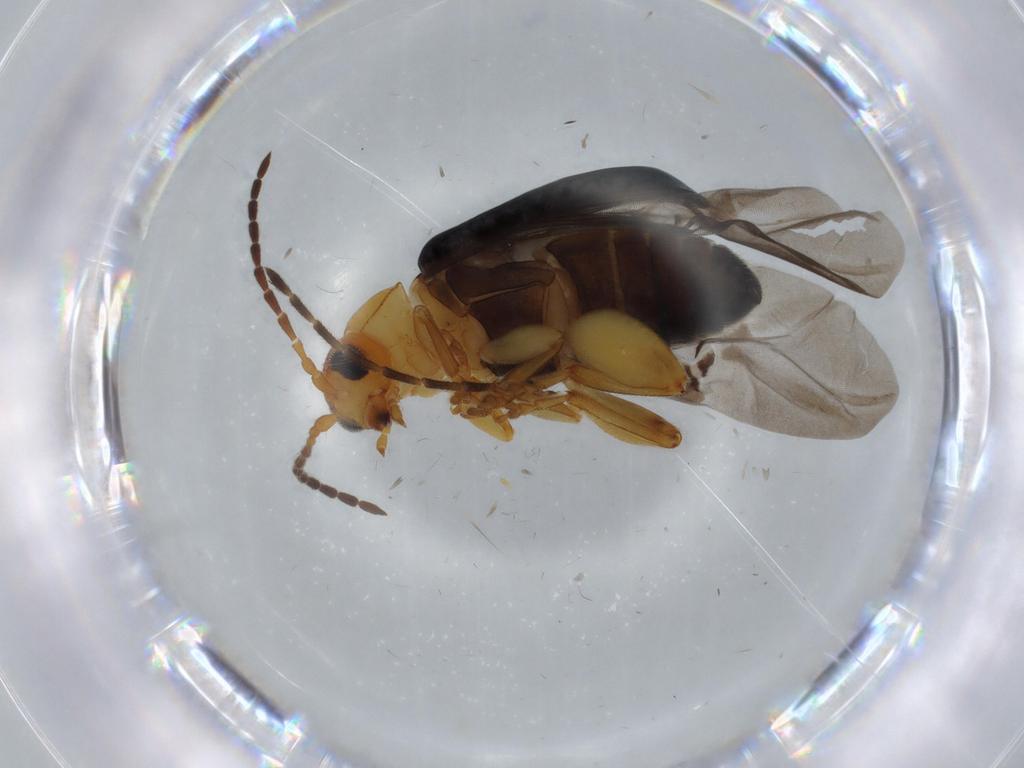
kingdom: Animalia
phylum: Arthropoda
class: Insecta
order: Coleoptera
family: Chrysomelidae
